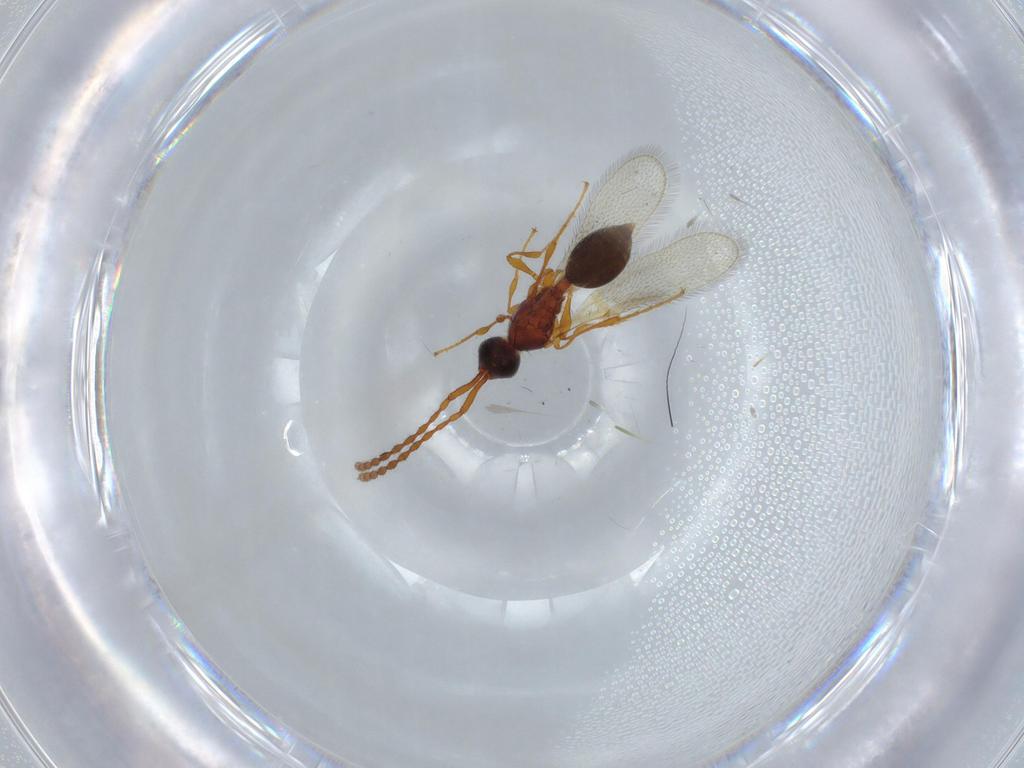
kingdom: Animalia
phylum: Arthropoda
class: Insecta
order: Hymenoptera
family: Diapriidae
